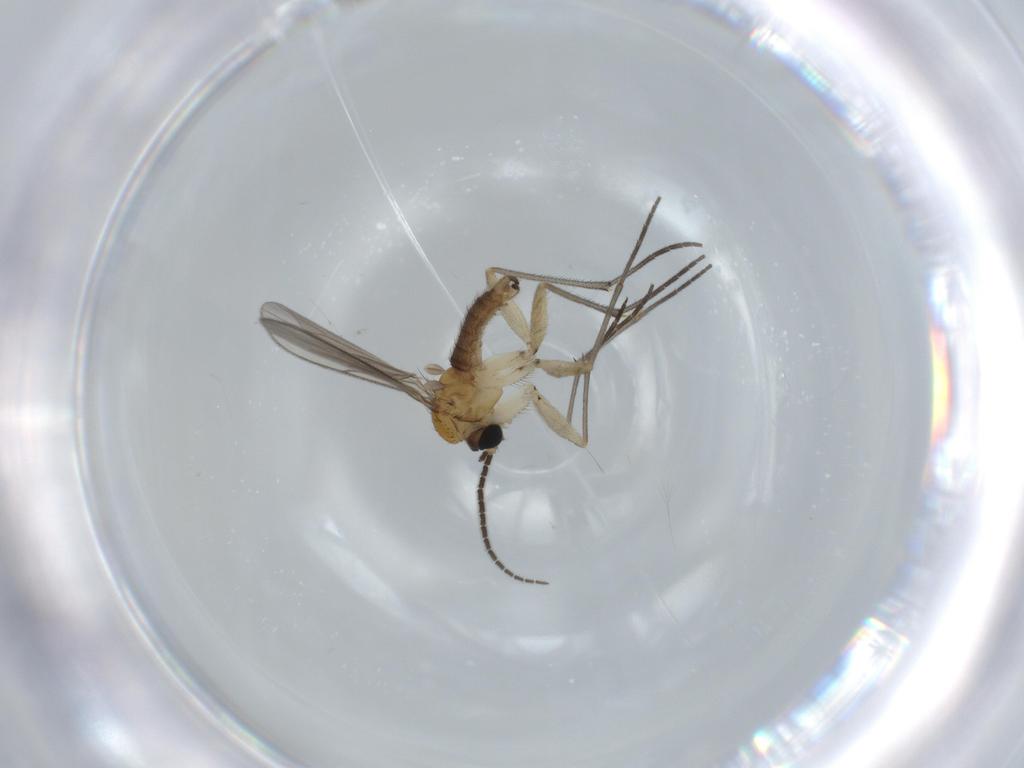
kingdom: Animalia
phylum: Arthropoda
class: Insecta
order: Diptera
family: Sciaridae
